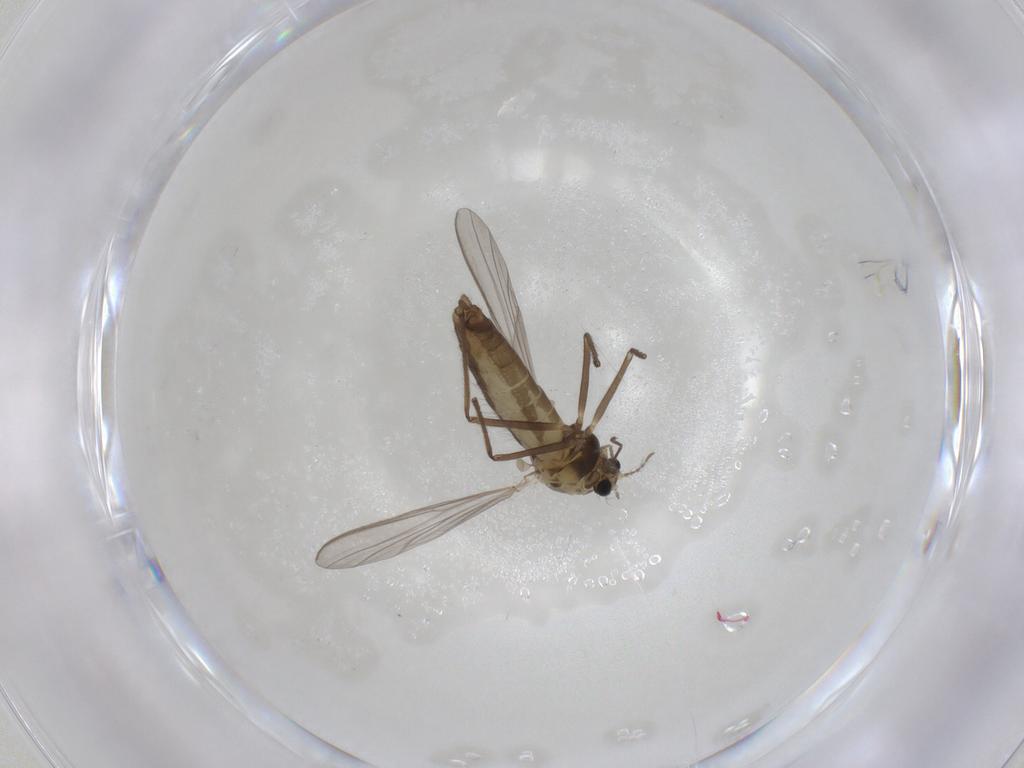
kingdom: Animalia
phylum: Arthropoda
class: Insecta
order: Diptera
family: Chironomidae
